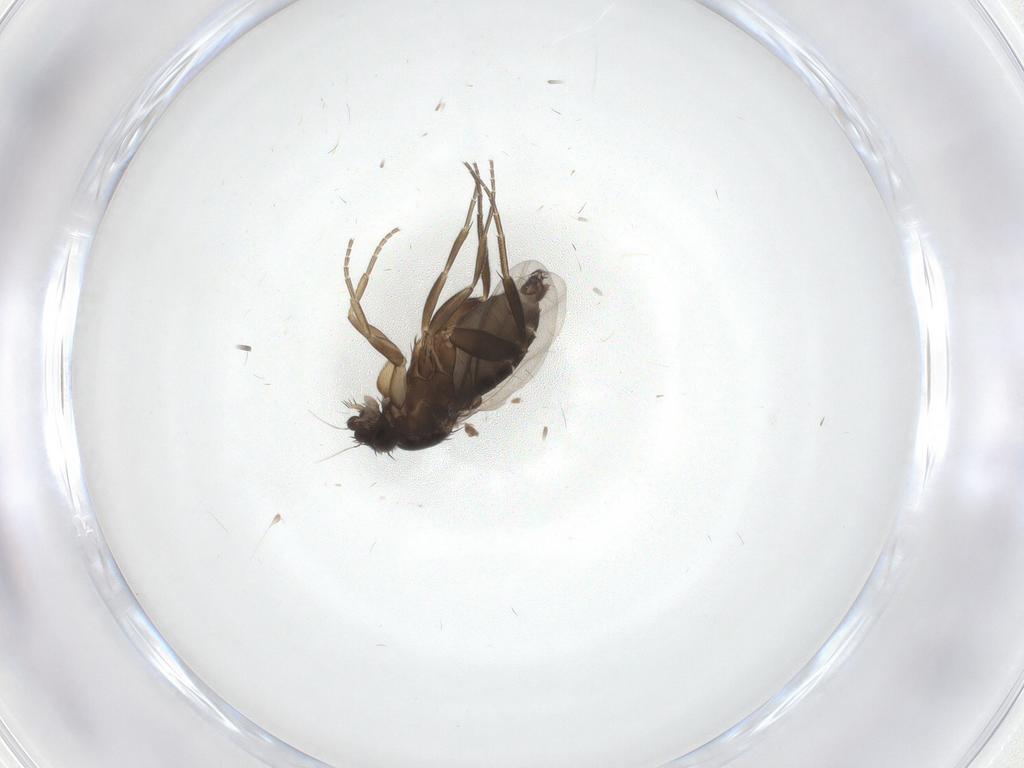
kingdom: Animalia
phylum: Arthropoda
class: Insecta
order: Diptera
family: Phoridae
